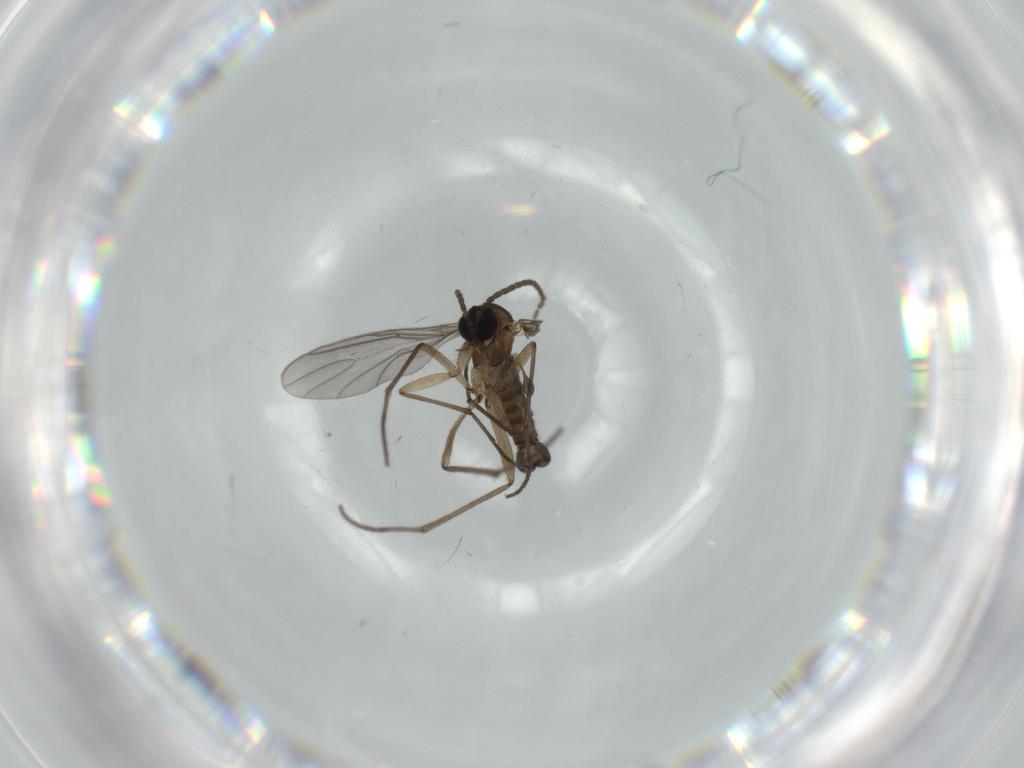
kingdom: Animalia
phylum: Arthropoda
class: Insecta
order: Diptera
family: Sciaridae
